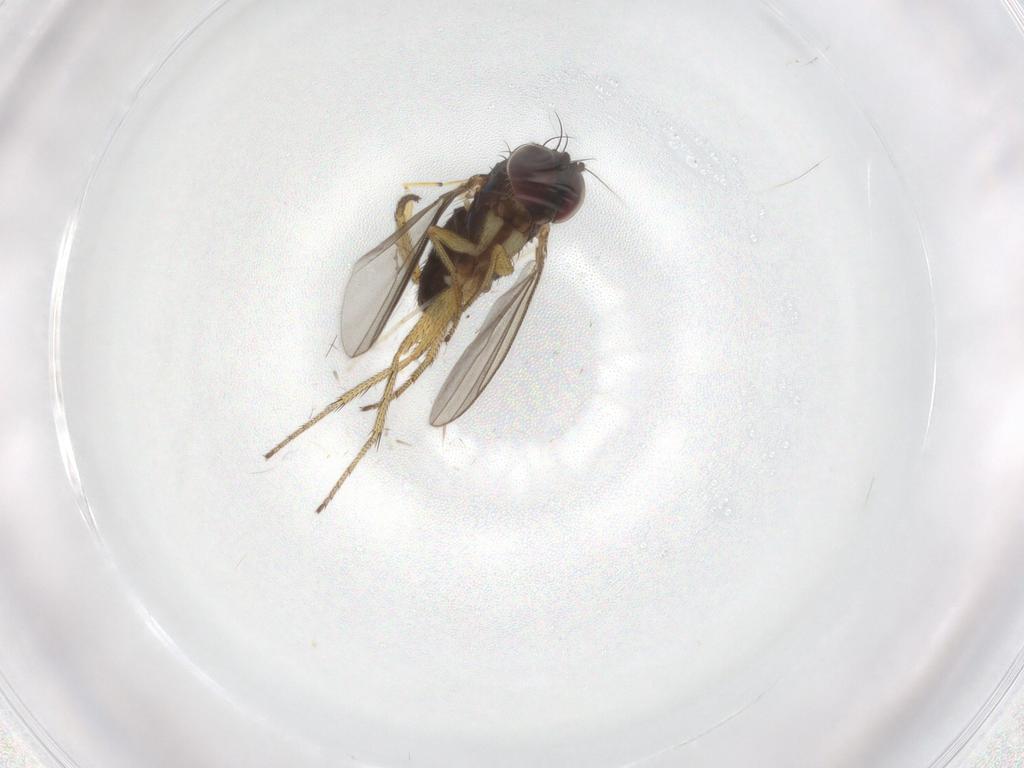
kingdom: Animalia
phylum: Arthropoda
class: Insecta
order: Diptera
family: Sciaridae
